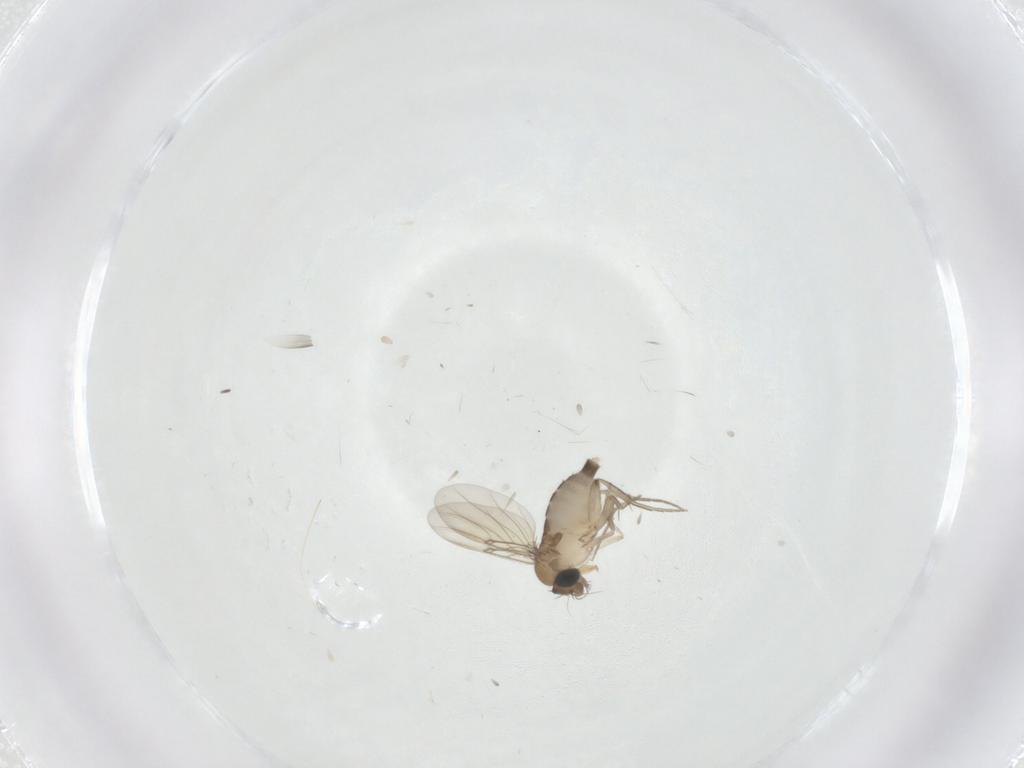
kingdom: Animalia
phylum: Arthropoda
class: Insecta
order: Diptera
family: Phoridae
